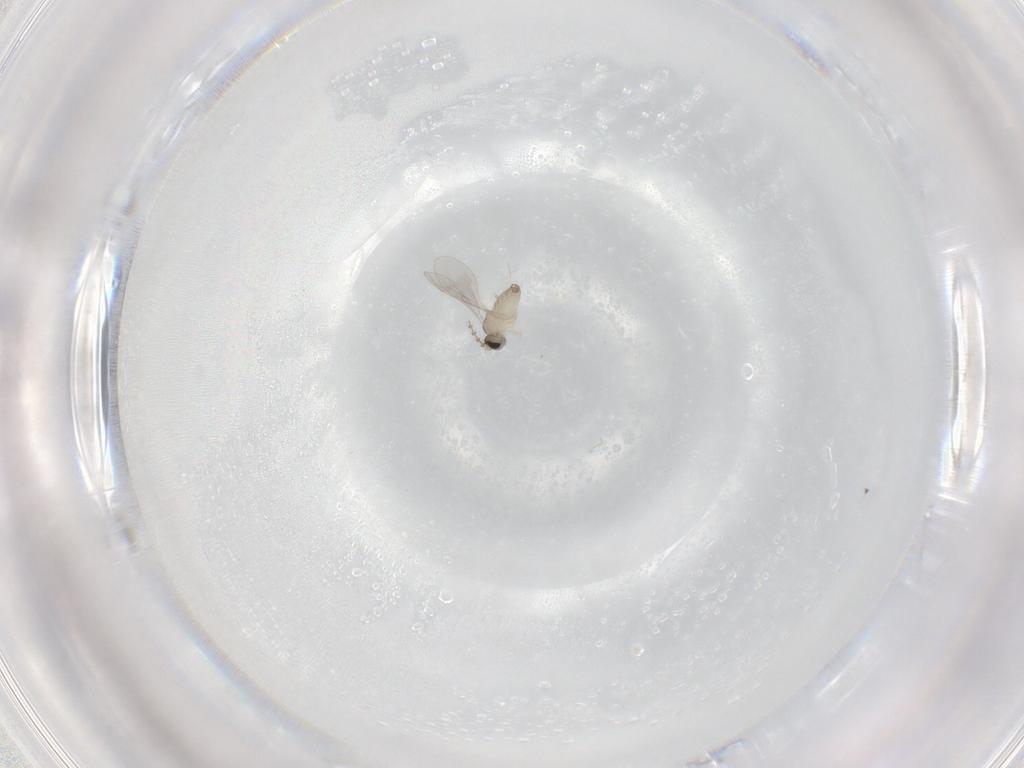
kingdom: Animalia
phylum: Arthropoda
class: Insecta
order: Diptera
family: Cecidomyiidae
